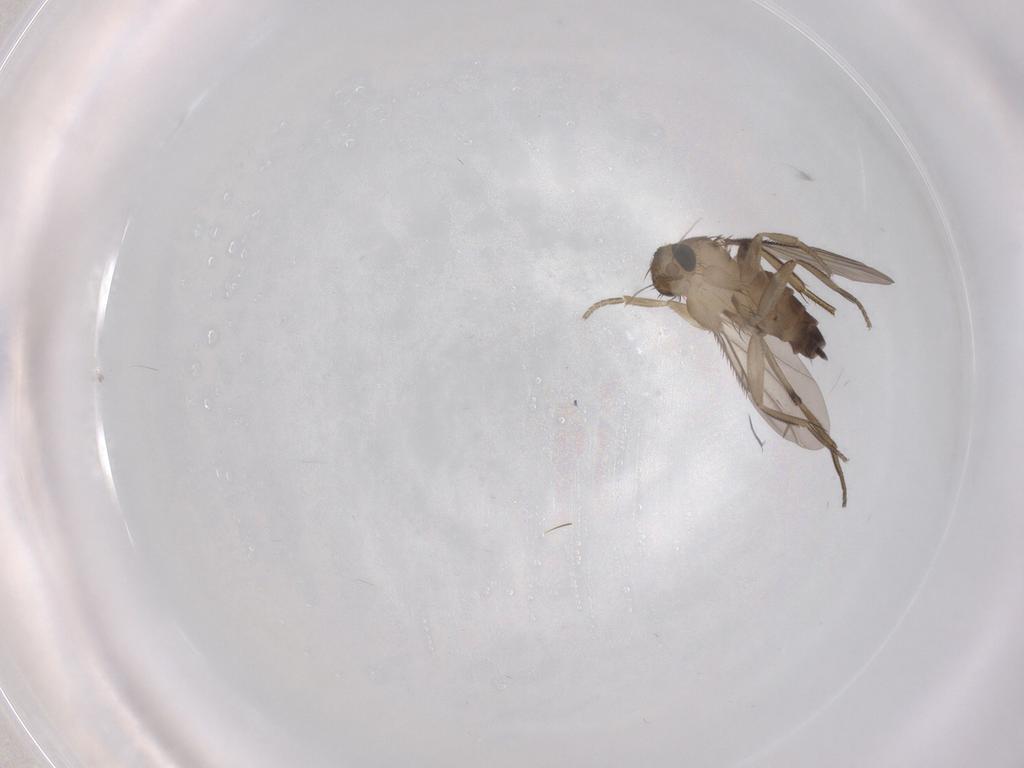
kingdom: Animalia
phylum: Arthropoda
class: Insecta
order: Diptera
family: Phoridae
